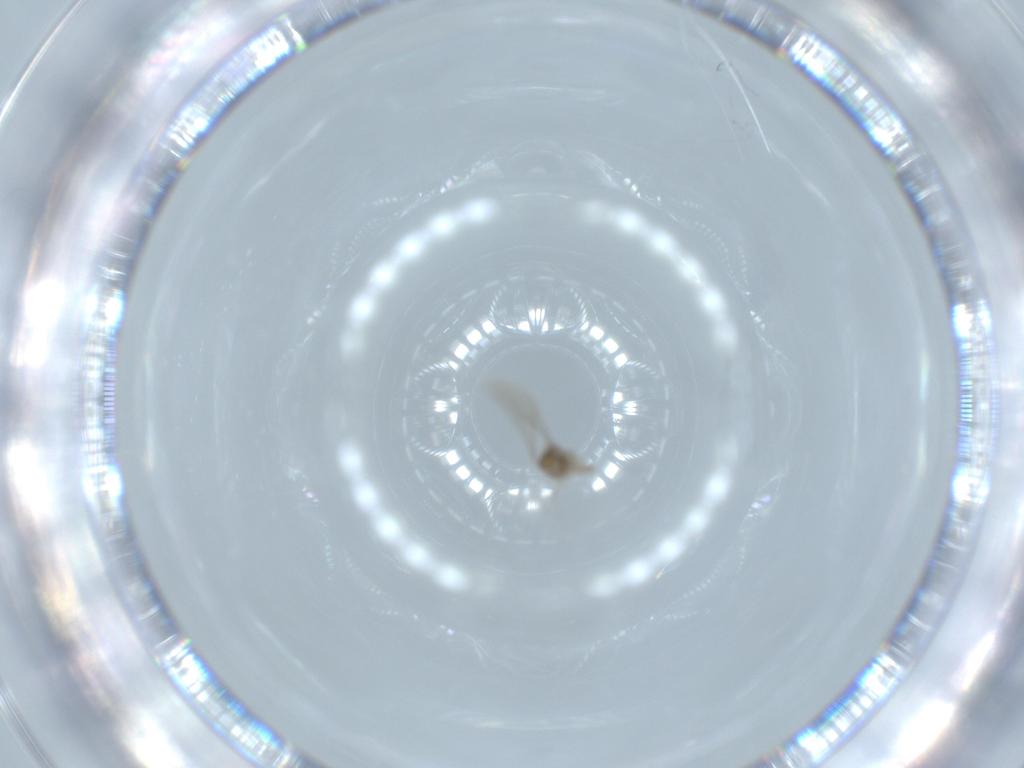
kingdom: Animalia
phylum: Arthropoda
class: Insecta
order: Diptera
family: Cecidomyiidae
